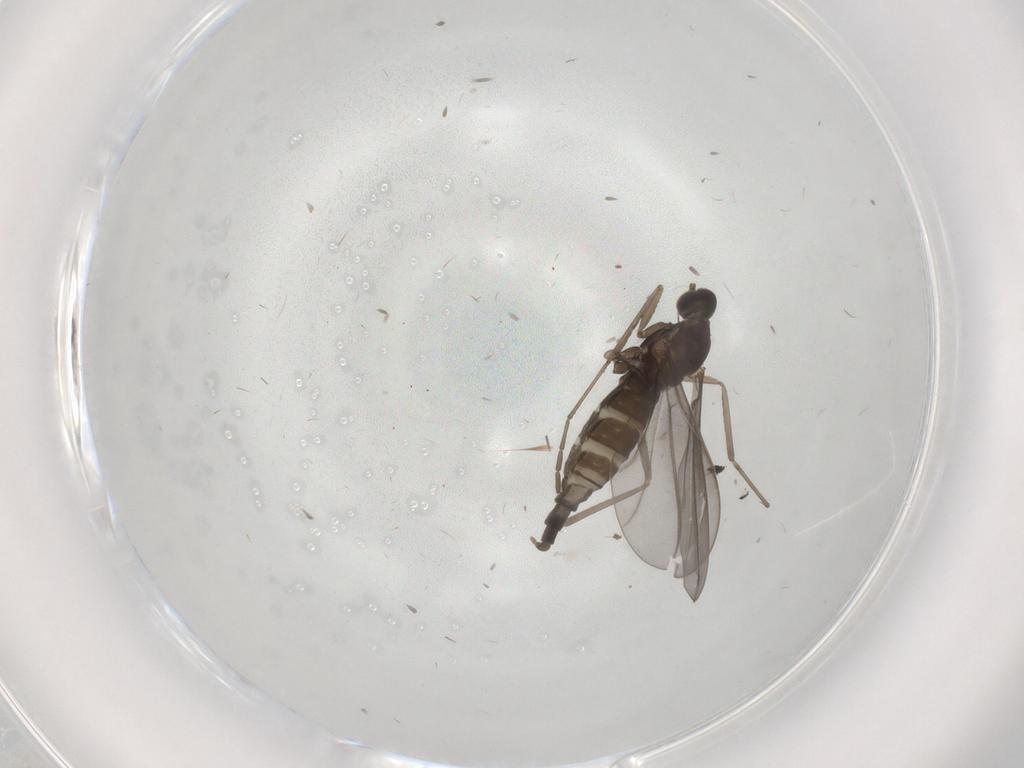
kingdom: Animalia
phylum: Arthropoda
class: Insecta
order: Diptera
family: Cecidomyiidae
